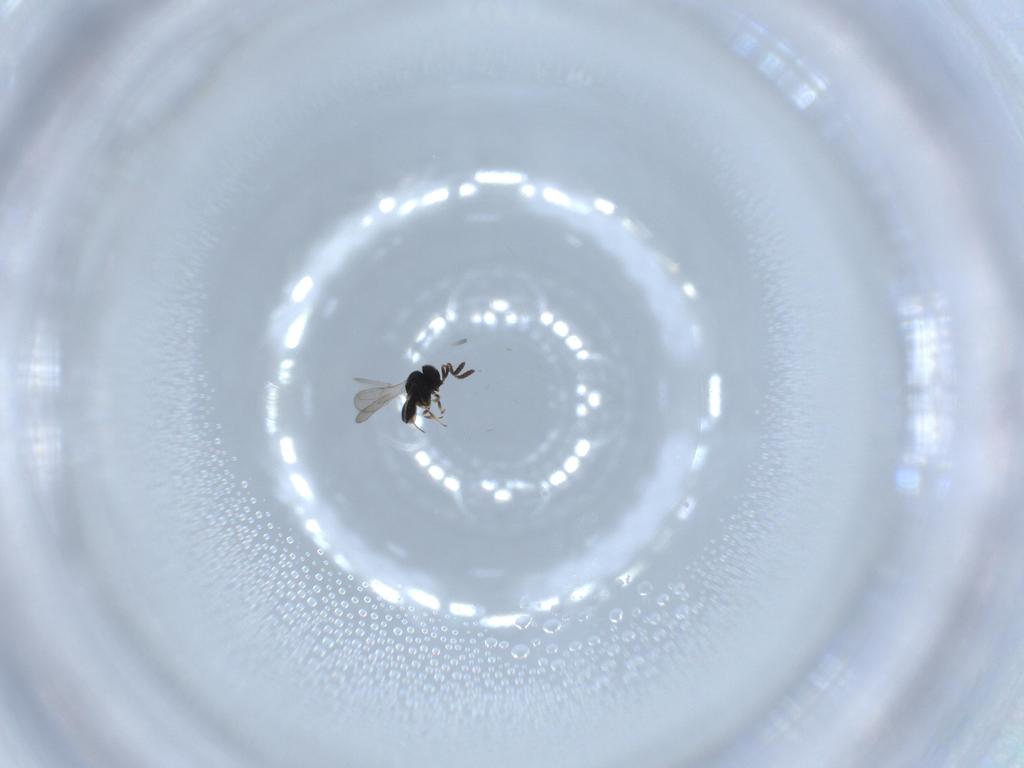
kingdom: Animalia
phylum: Arthropoda
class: Insecta
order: Hymenoptera
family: Scelionidae
